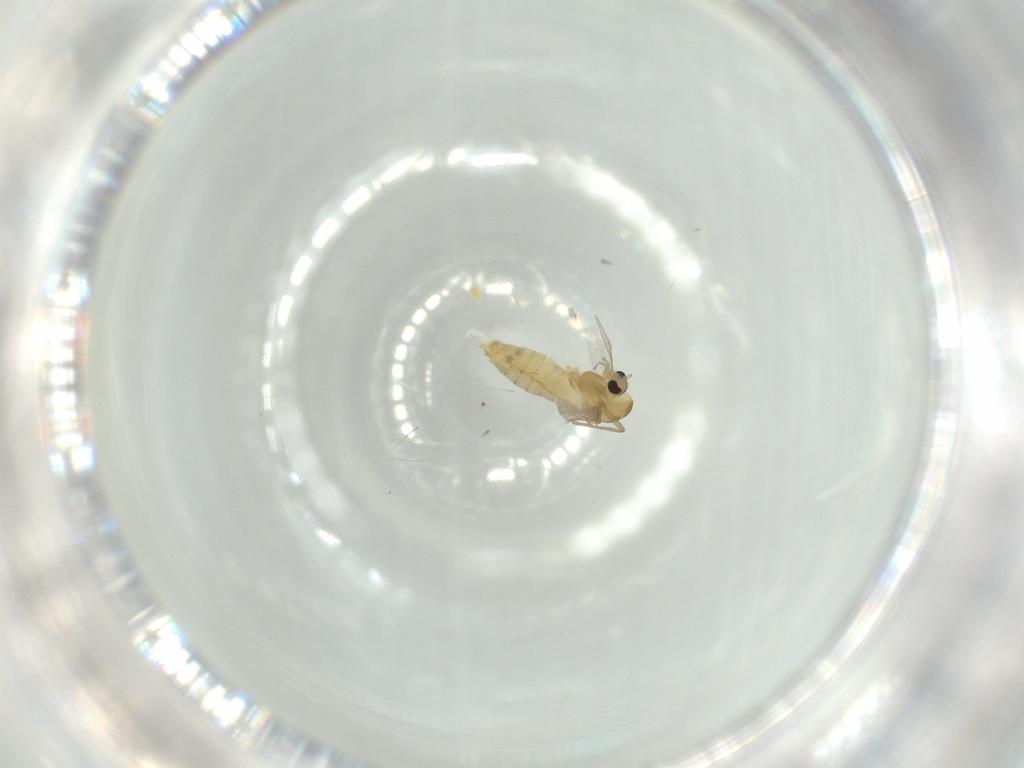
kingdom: Animalia
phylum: Arthropoda
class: Insecta
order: Diptera
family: Chironomidae
